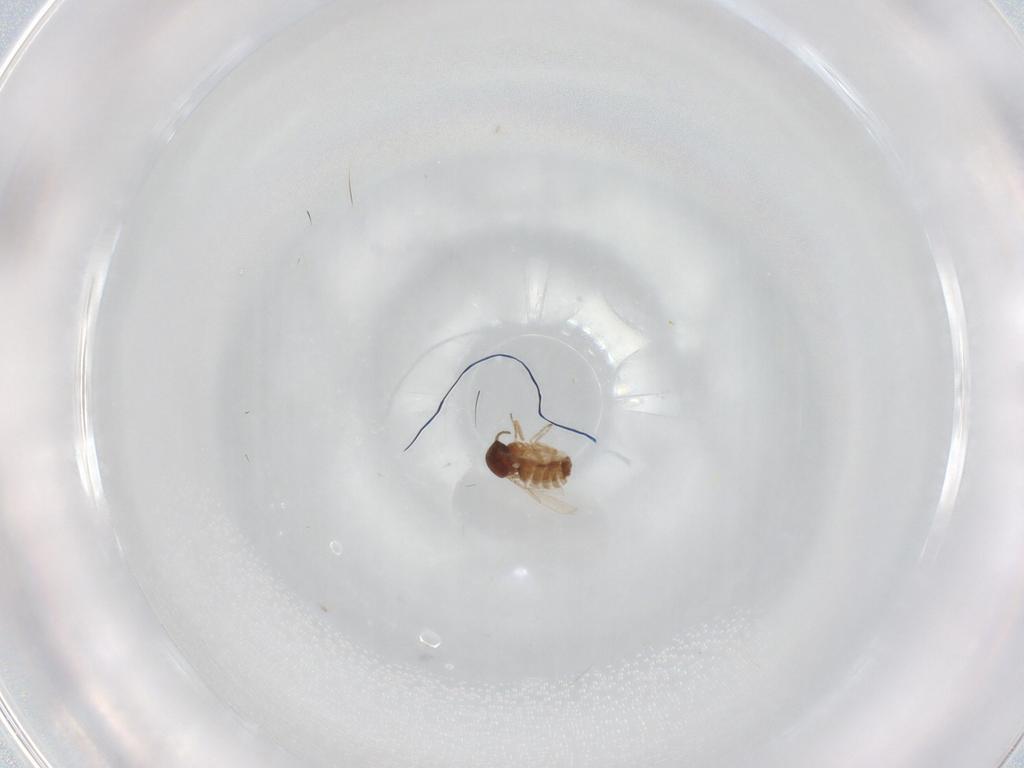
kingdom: Animalia
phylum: Arthropoda
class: Insecta
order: Diptera
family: Ceratopogonidae
